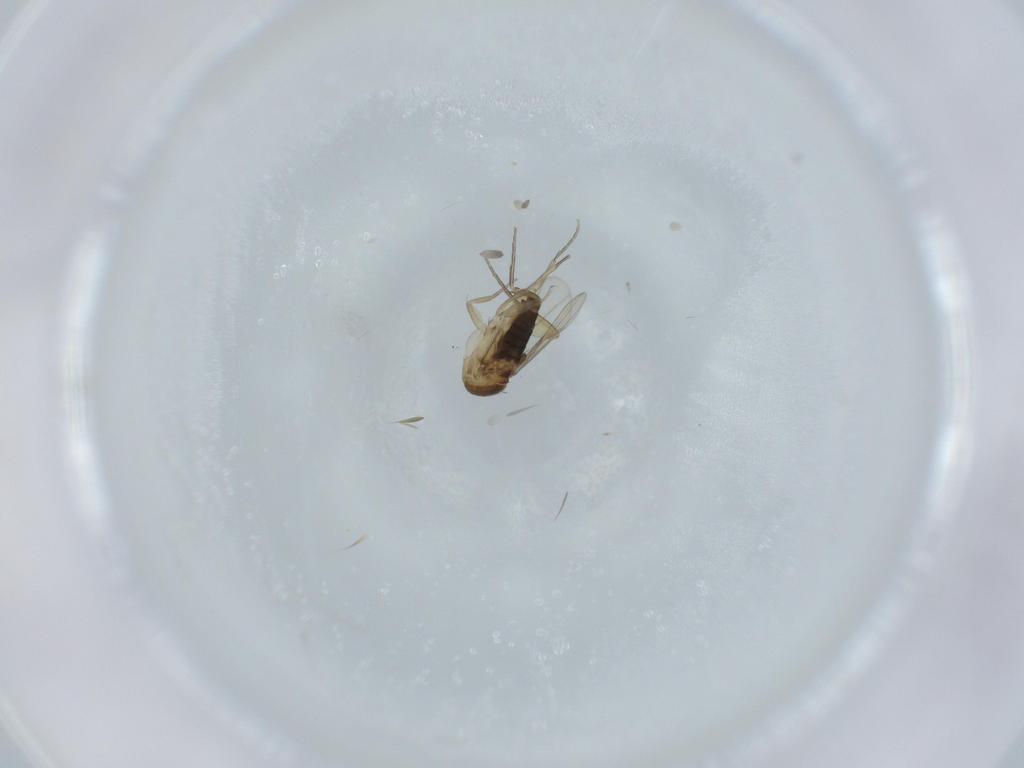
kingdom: Animalia
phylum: Arthropoda
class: Insecta
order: Diptera
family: Phoridae
